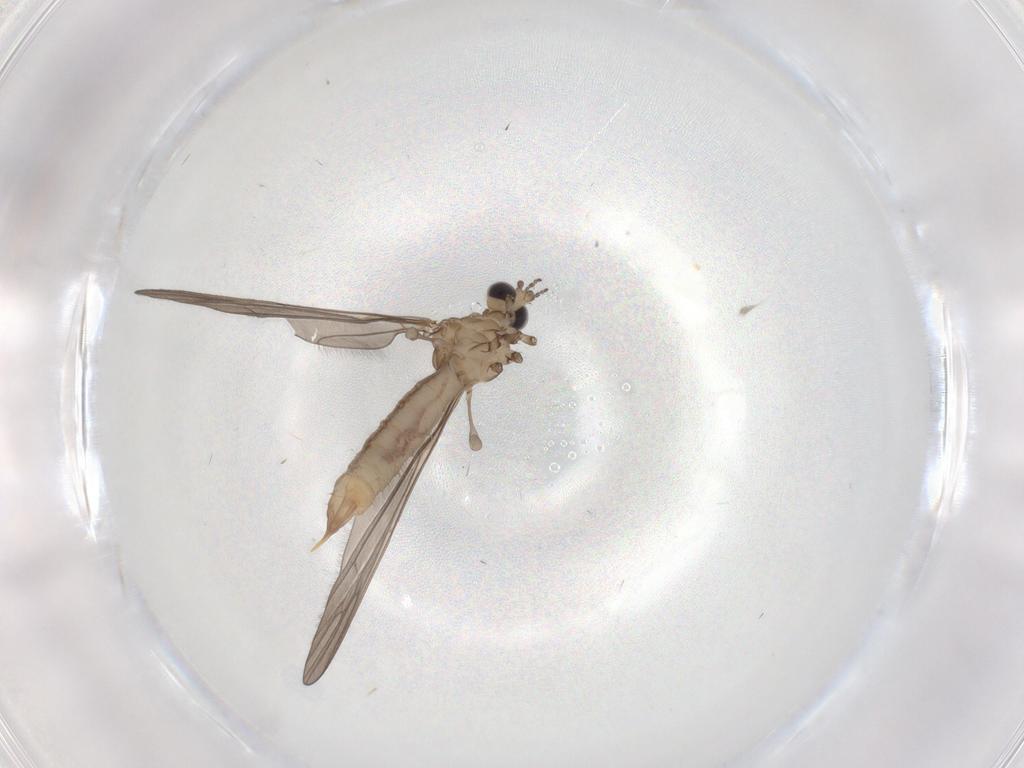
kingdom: Animalia
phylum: Arthropoda
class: Insecta
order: Diptera
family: Limoniidae
